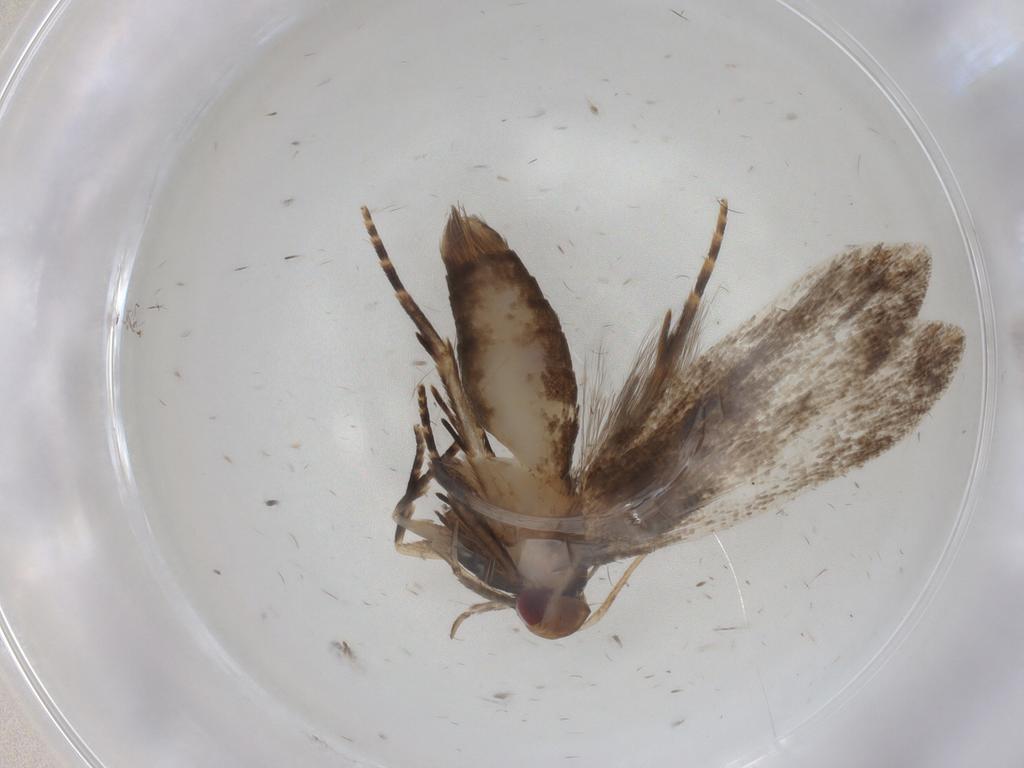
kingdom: Animalia
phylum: Arthropoda
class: Insecta
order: Lepidoptera
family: Gelechiidae
